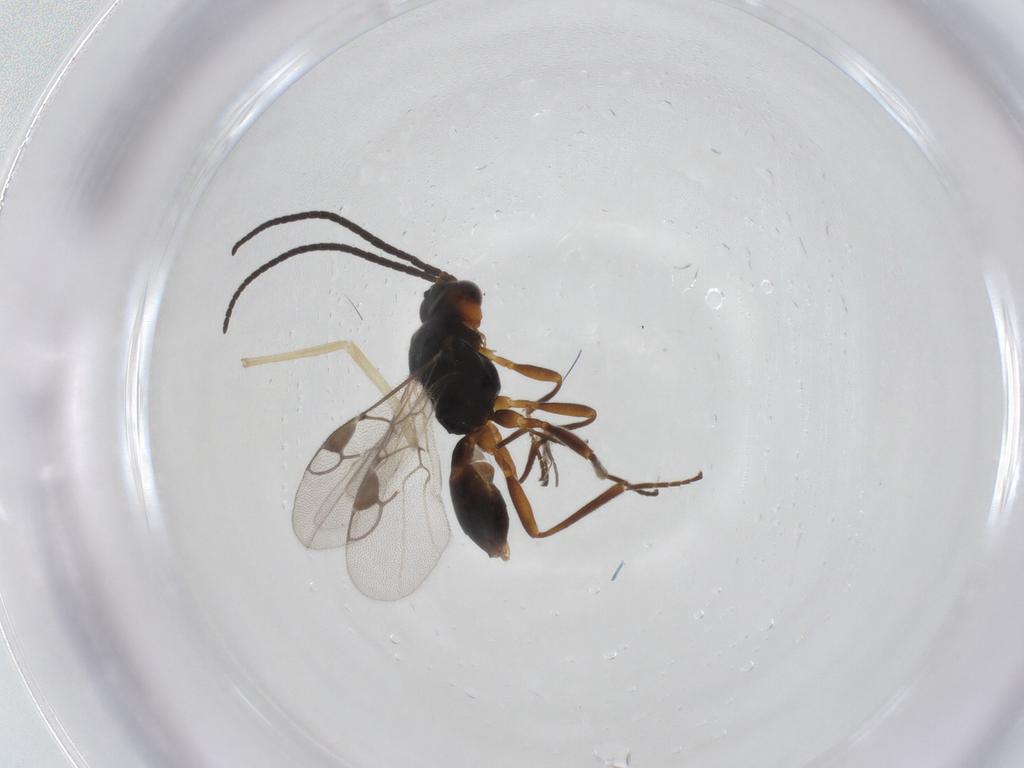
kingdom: Animalia
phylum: Arthropoda
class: Insecta
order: Hymenoptera
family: Braconidae
